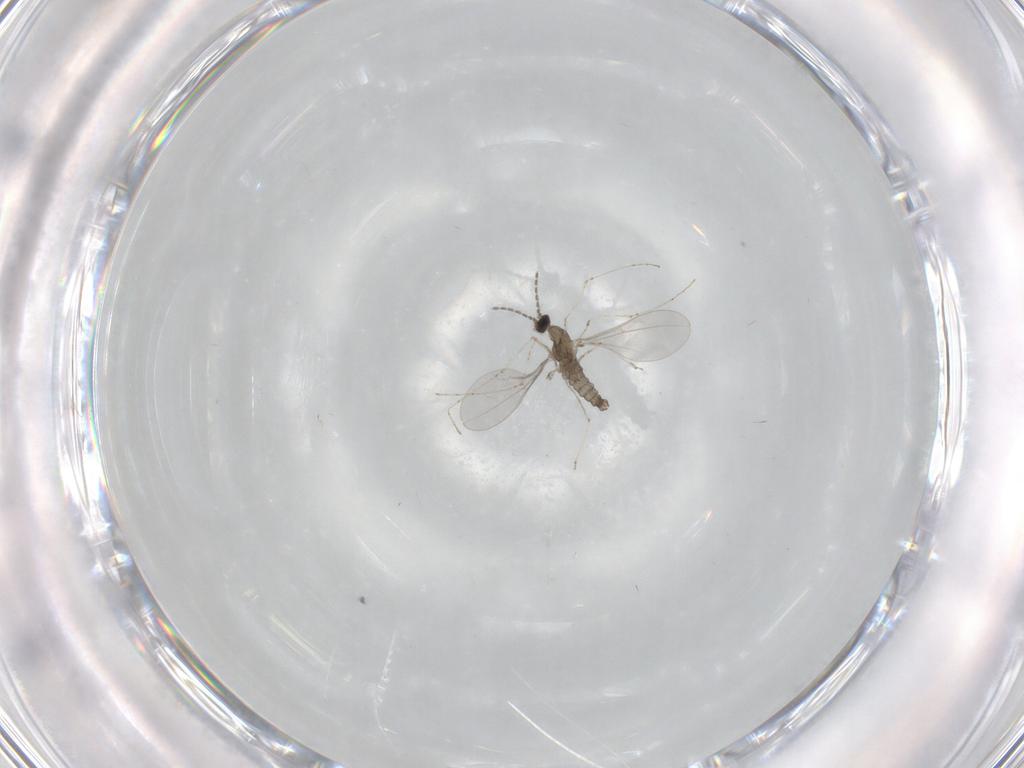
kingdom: Animalia
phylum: Arthropoda
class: Insecta
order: Diptera
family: Cecidomyiidae
